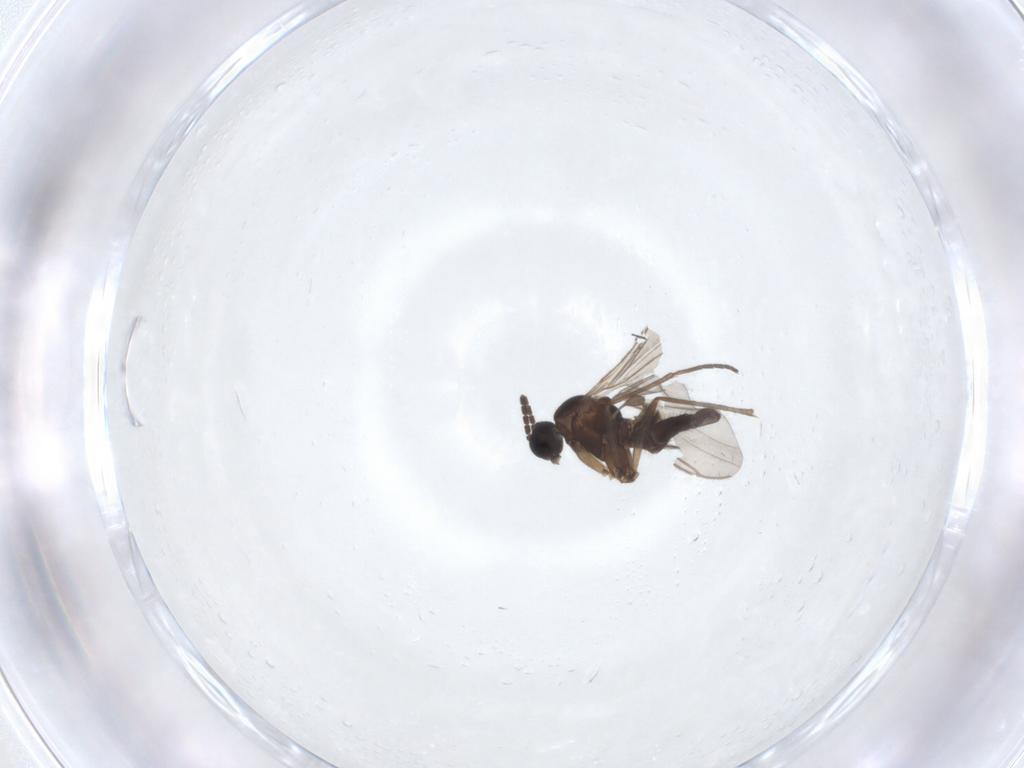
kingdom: Animalia
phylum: Arthropoda
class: Insecta
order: Diptera
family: Sciaridae
